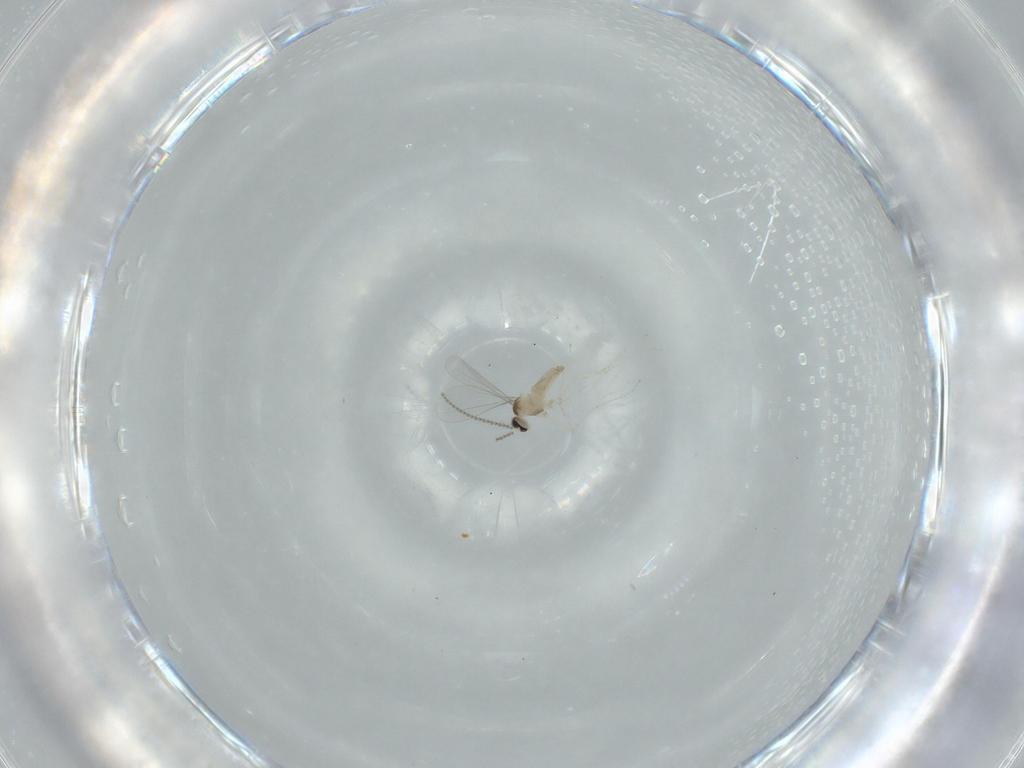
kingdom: Animalia
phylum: Arthropoda
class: Insecta
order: Diptera
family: Cecidomyiidae
